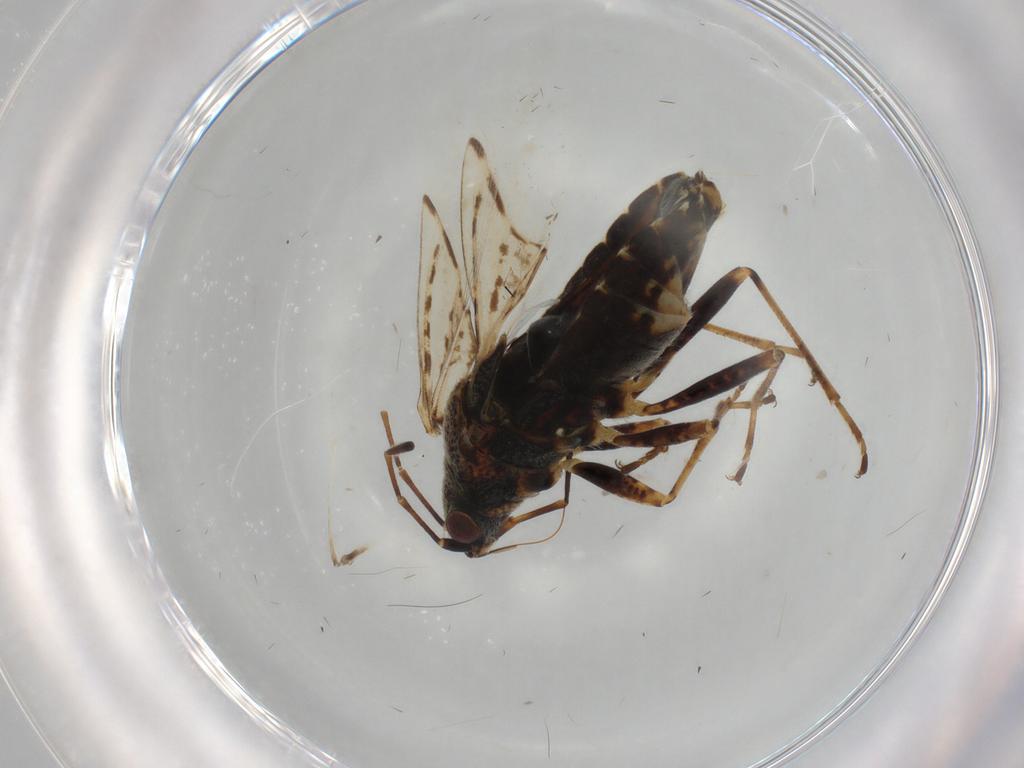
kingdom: Animalia
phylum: Arthropoda
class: Insecta
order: Hemiptera
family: Lygaeidae
